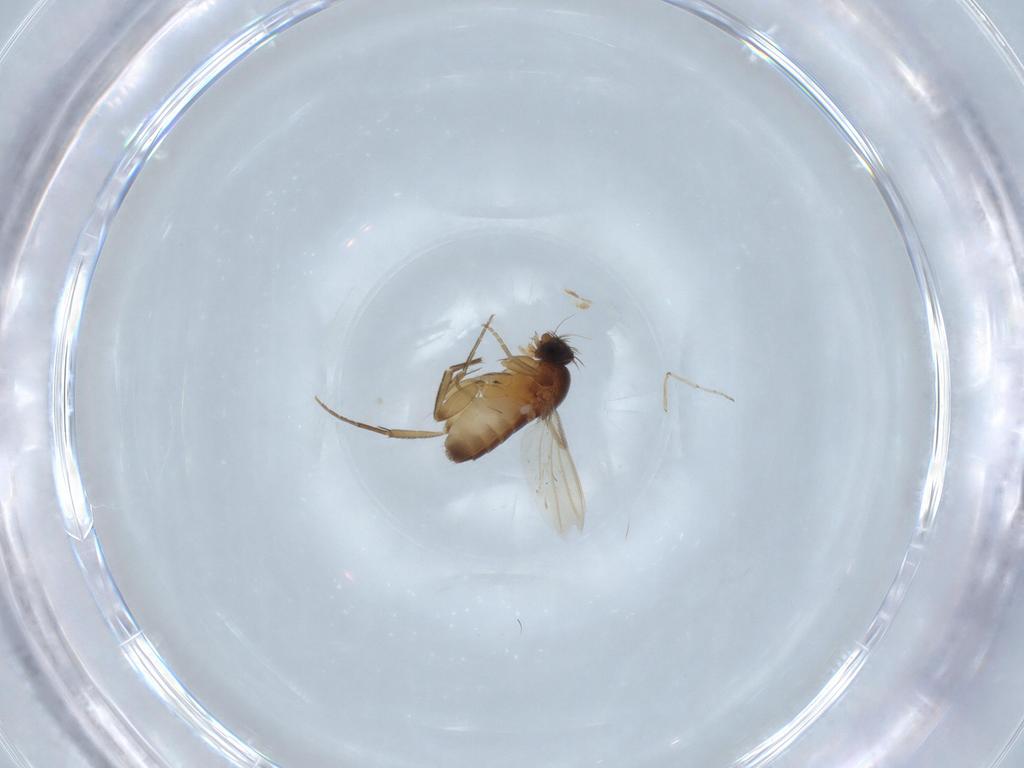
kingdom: Animalia
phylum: Arthropoda
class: Insecta
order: Diptera
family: Phoridae
